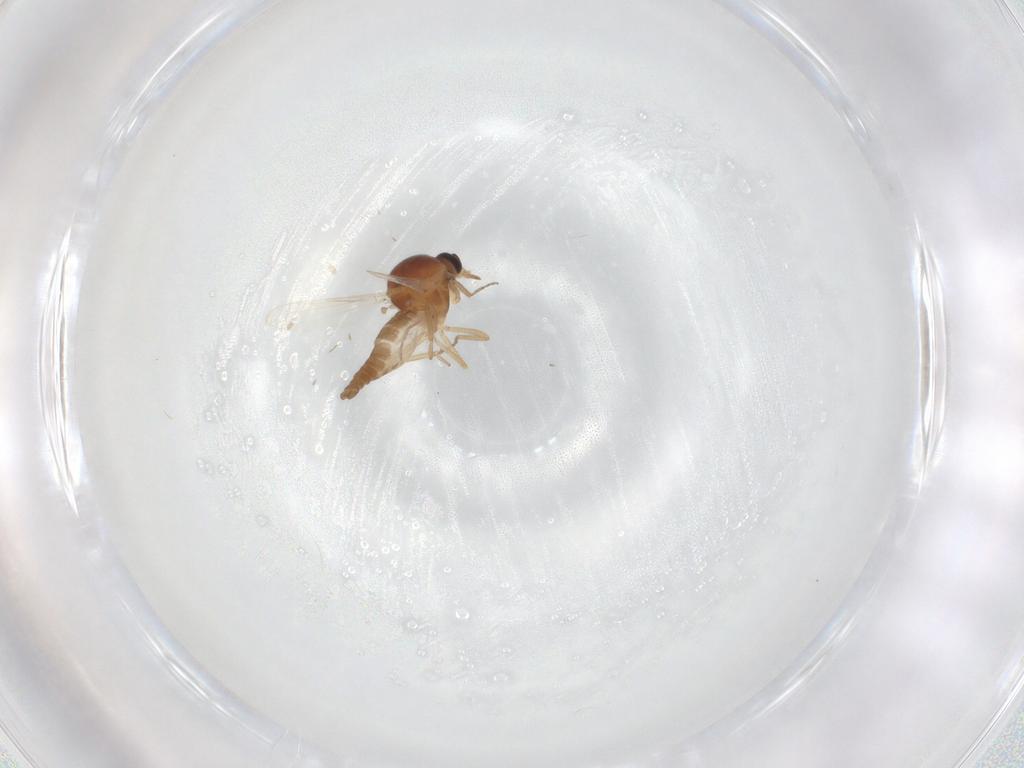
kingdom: Animalia
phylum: Arthropoda
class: Insecta
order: Diptera
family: Ceratopogonidae
